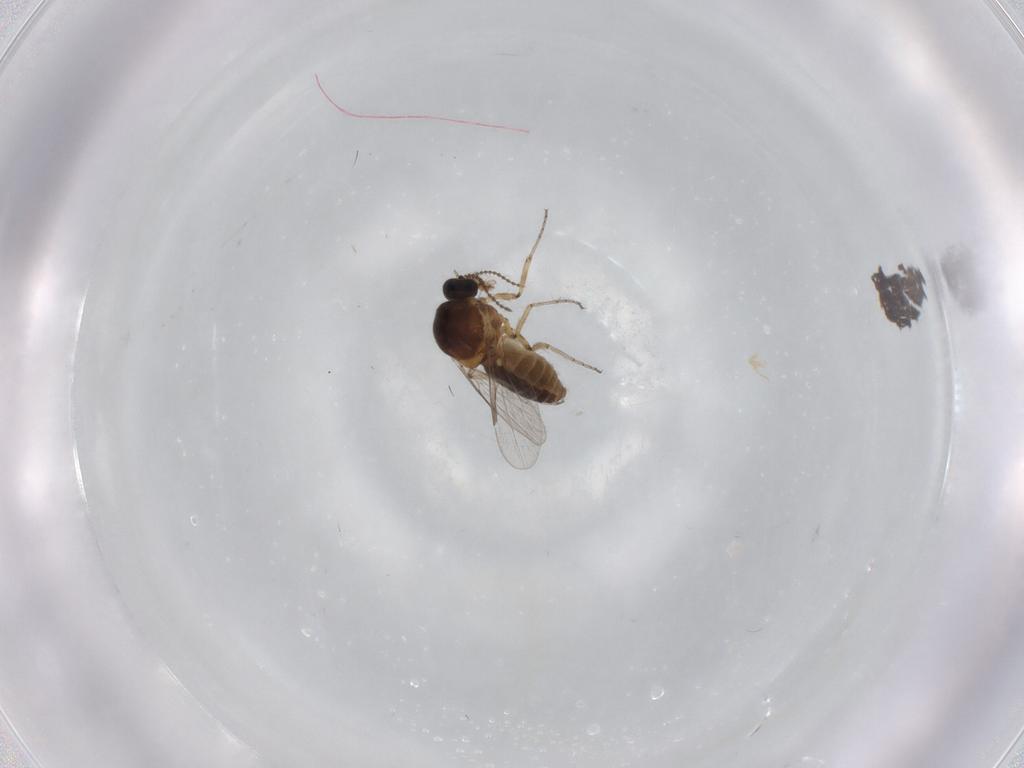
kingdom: Animalia
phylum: Arthropoda
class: Insecta
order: Diptera
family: Ceratopogonidae
